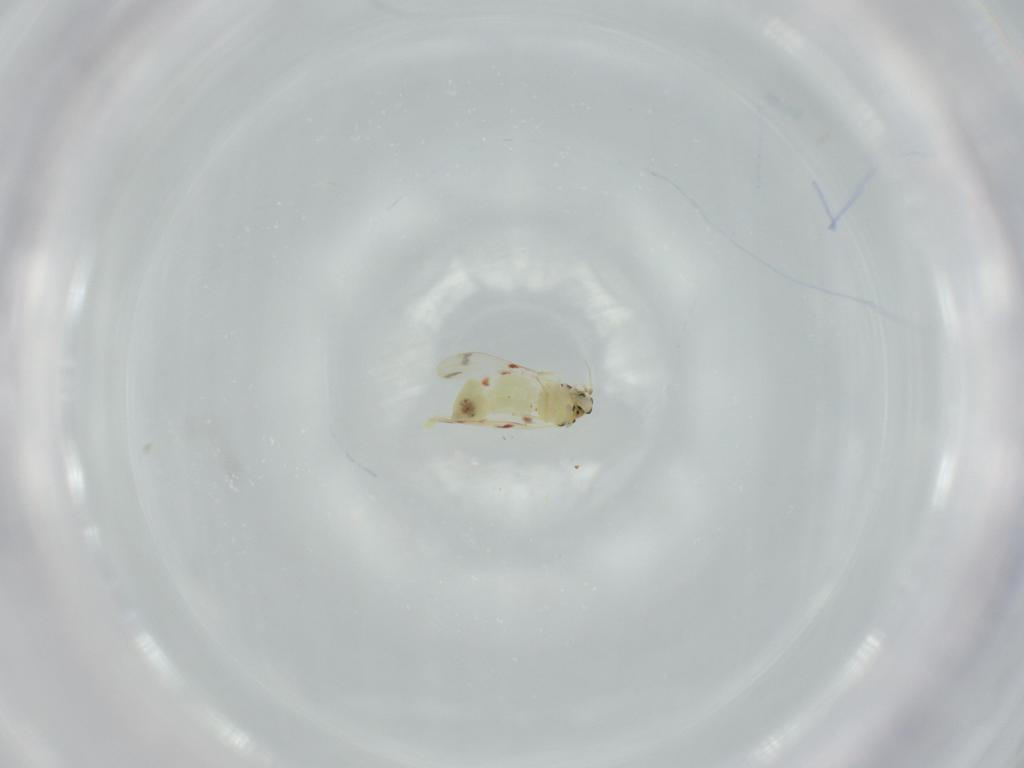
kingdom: Animalia
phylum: Arthropoda
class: Insecta
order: Hemiptera
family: Aleyrodidae
